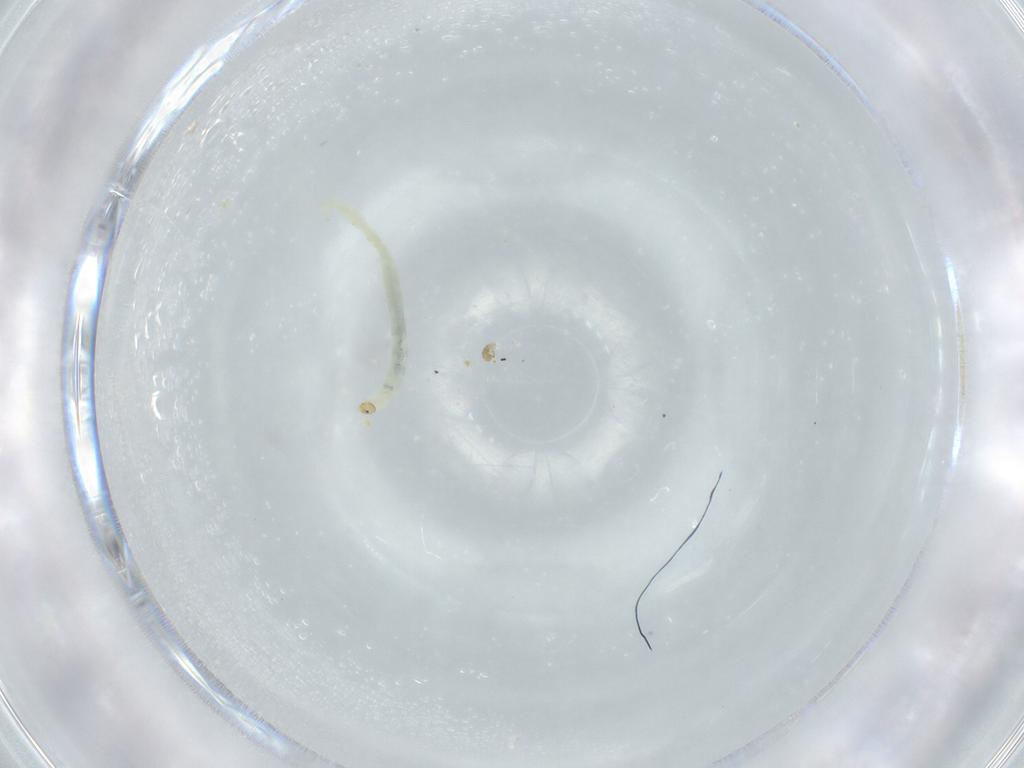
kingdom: Animalia
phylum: Arthropoda
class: Insecta
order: Diptera
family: Chironomidae
